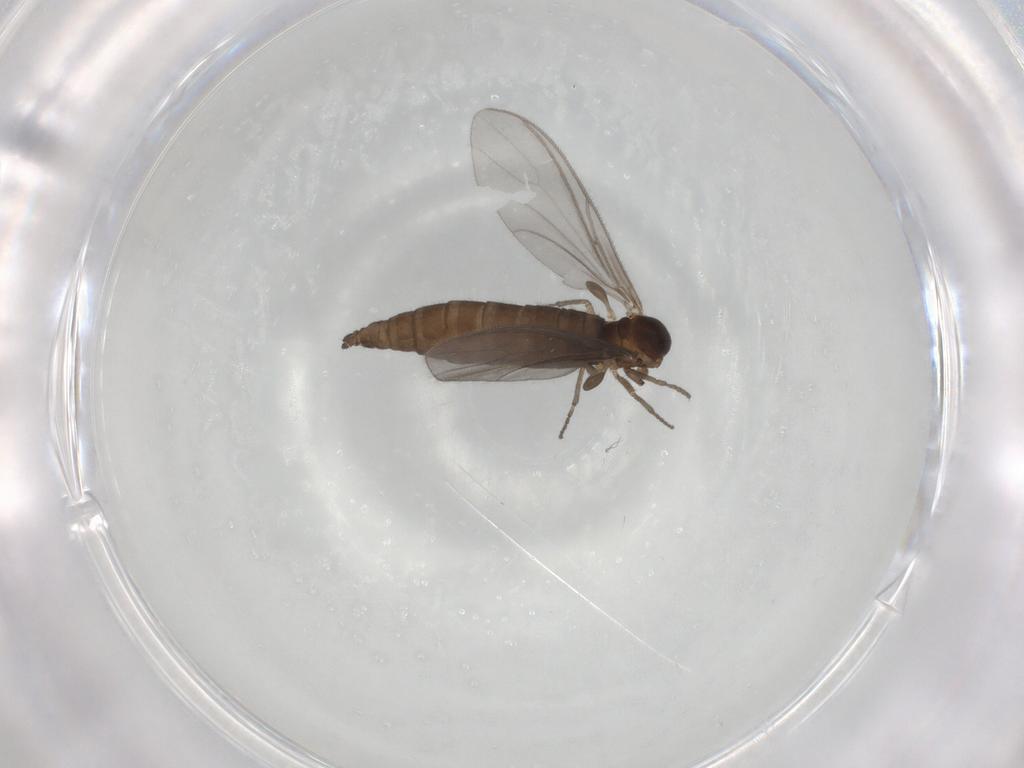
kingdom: Animalia
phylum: Arthropoda
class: Insecta
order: Diptera
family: Sciaridae
